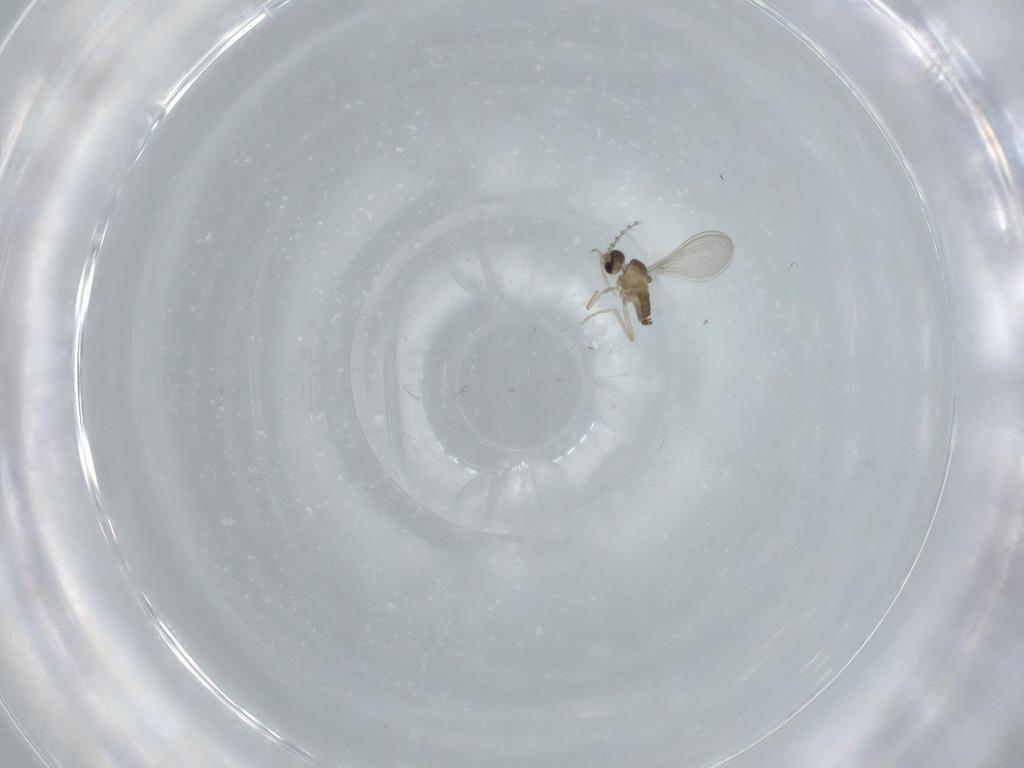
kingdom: Animalia
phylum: Arthropoda
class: Insecta
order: Diptera
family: Cecidomyiidae
